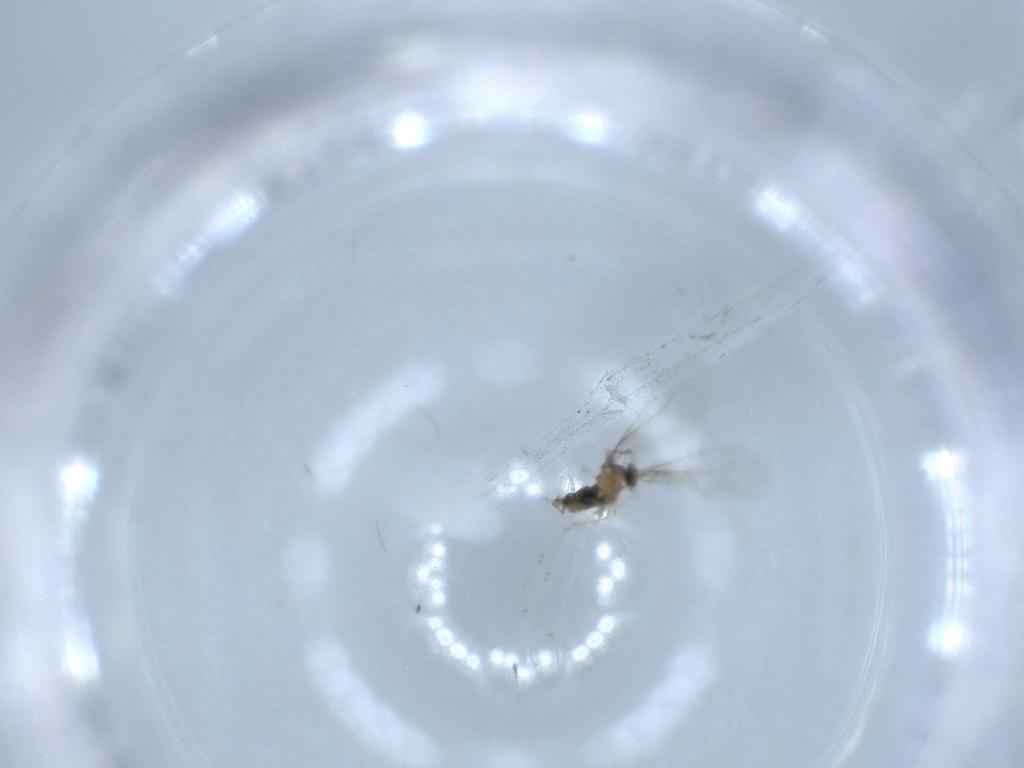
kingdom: Animalia
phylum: Arthropoda
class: Insecta
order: Diptera
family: Cecidomyiidae
